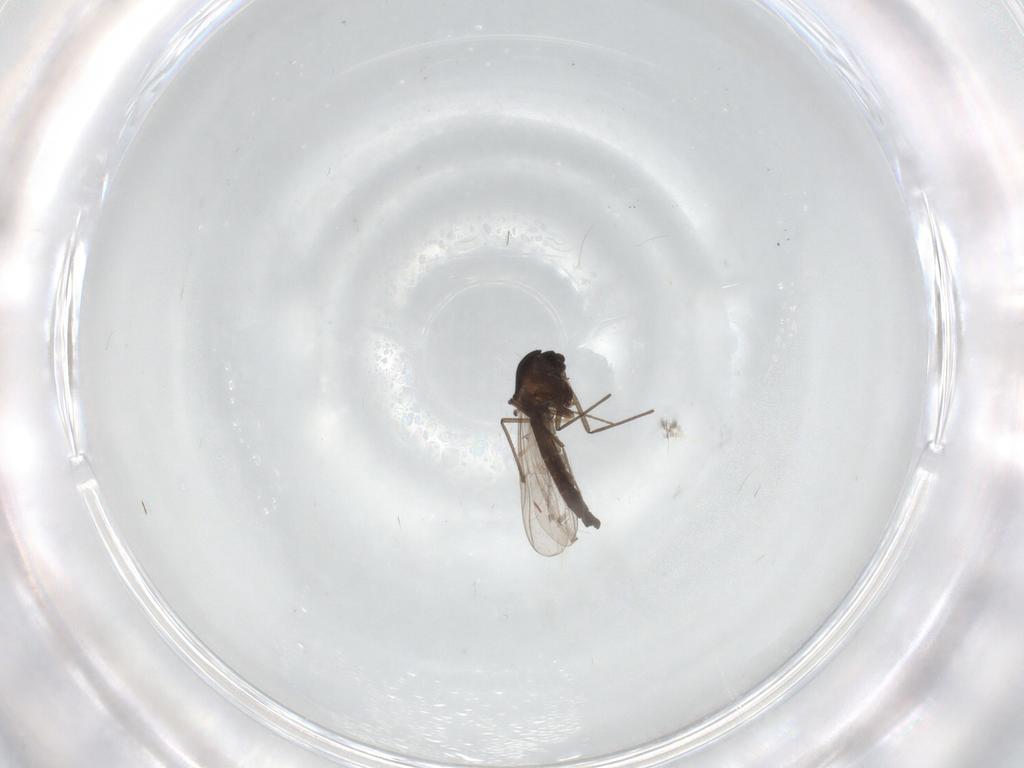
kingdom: Animalia
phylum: Arthropoda
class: Insecta
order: Diptera
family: Chironomidae
